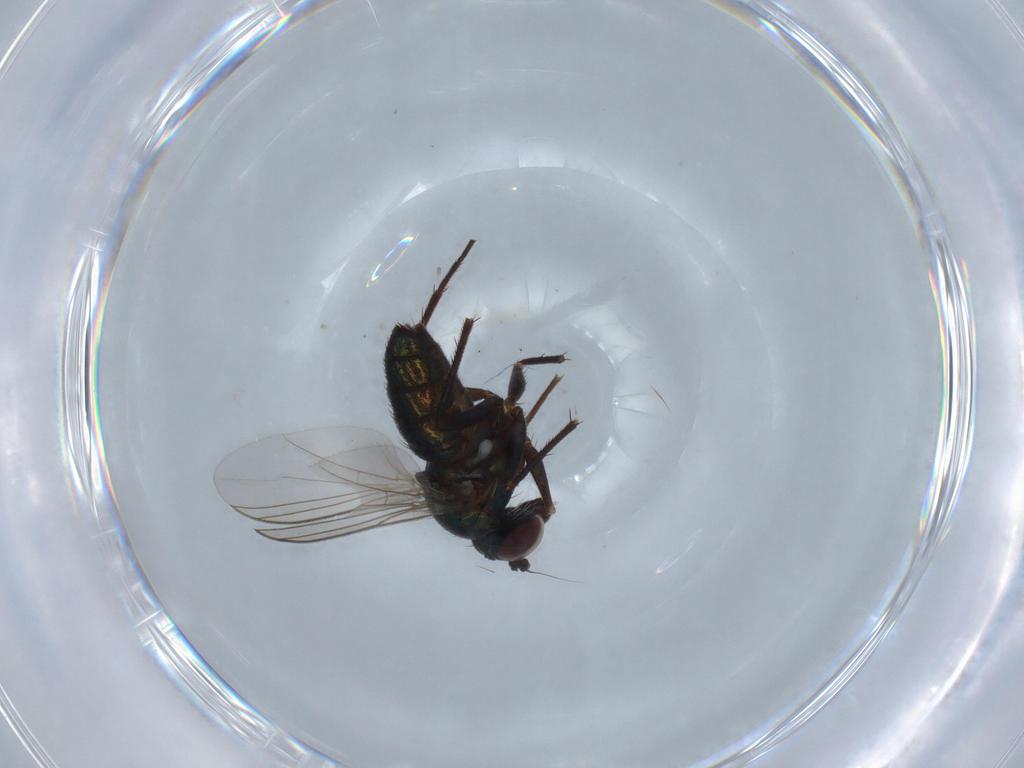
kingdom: Animalia
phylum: Arthropoda
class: Insecta
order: Diptera
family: Dolichopodidae
